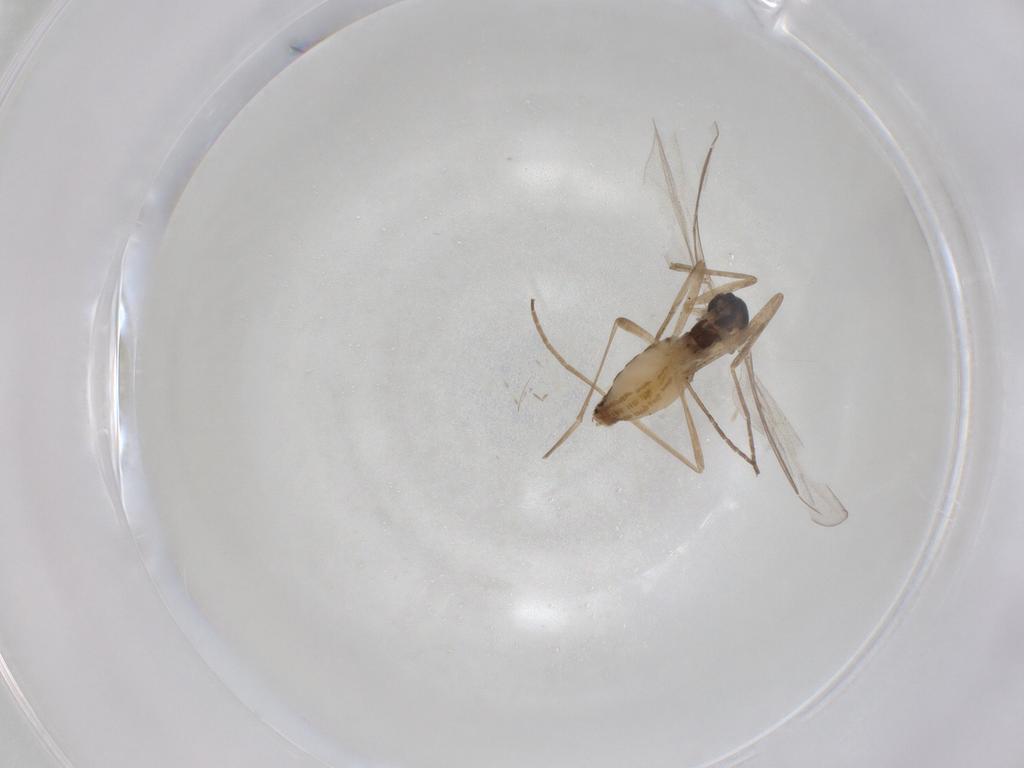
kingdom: Animalia
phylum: Arthropoda
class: Insecta
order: Diptera
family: Cecidomyiidae
